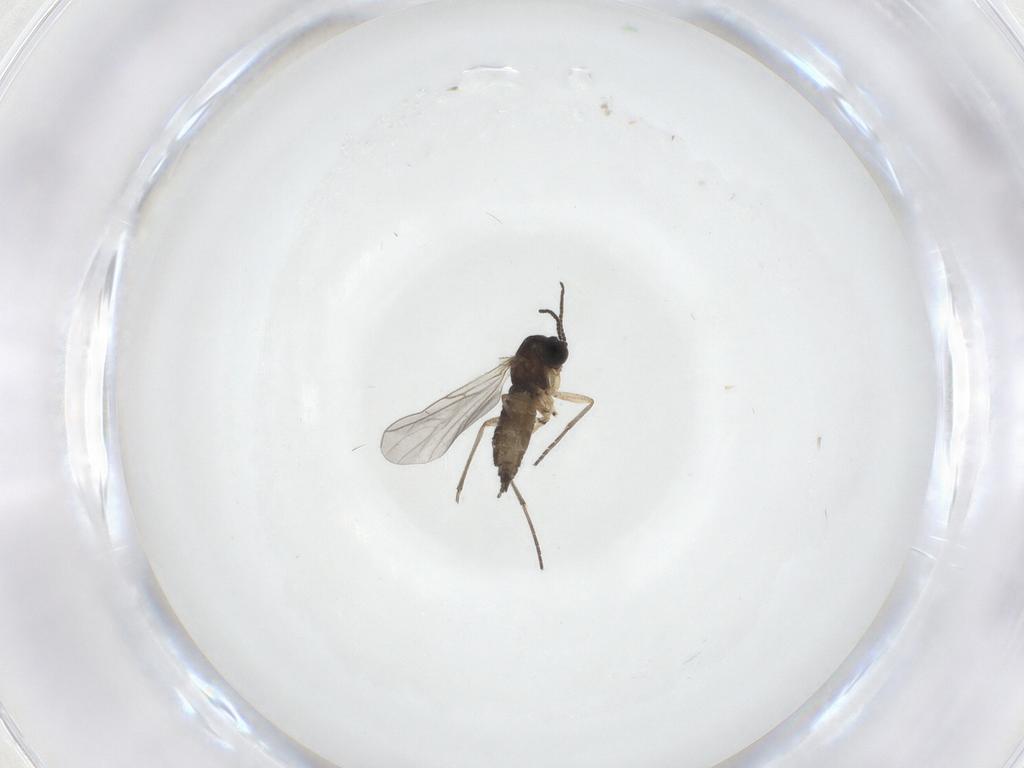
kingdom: Animalia
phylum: Arthropoda
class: Insecta
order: Diptera
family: Sciaridae
